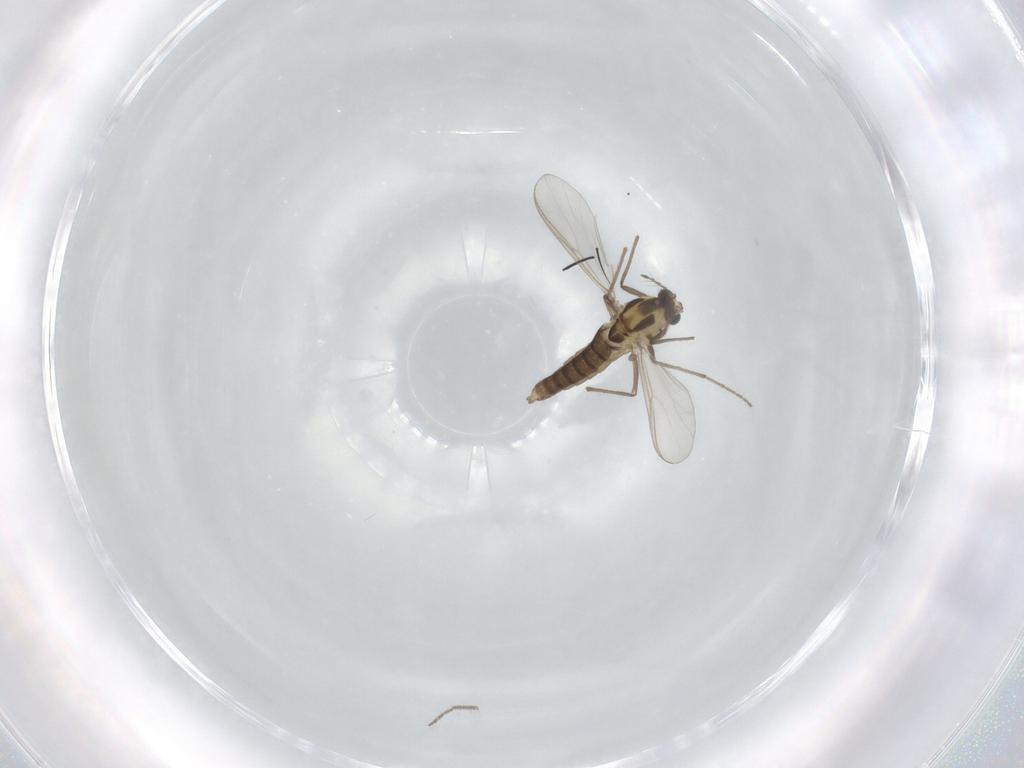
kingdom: Animalia
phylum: Arthropoda
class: Insecta
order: Diptera
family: Chironomidae
